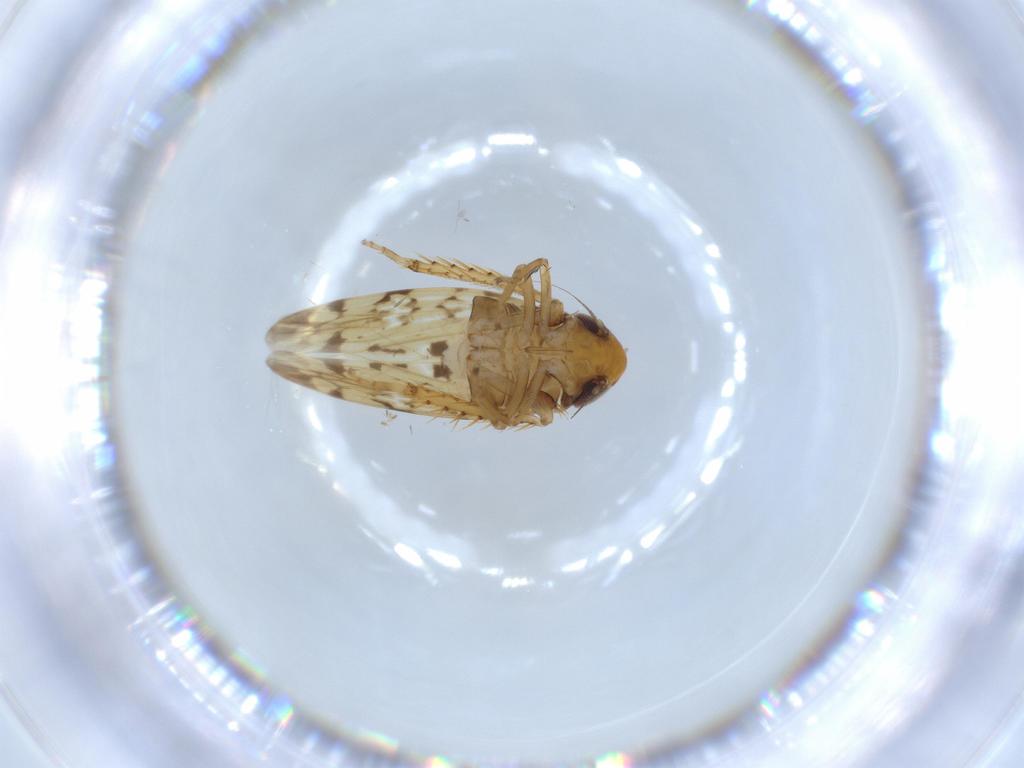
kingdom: Animalia
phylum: Arthropoda
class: Insecta
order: Hemiptera
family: Cicadellidae
